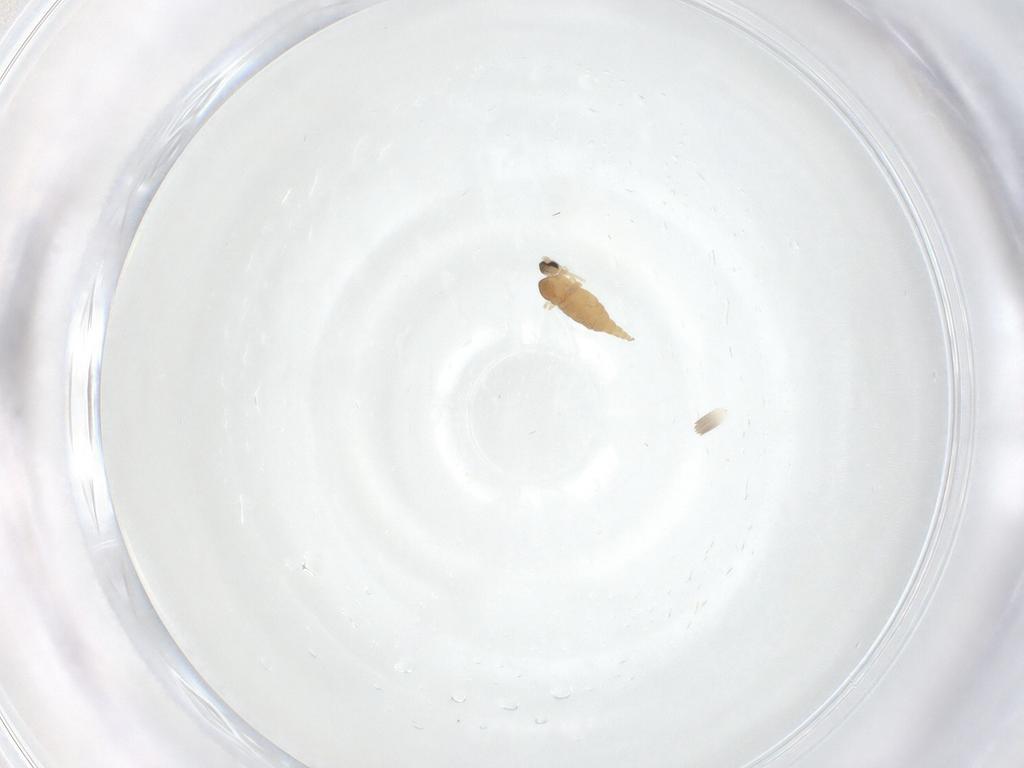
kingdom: Animalia
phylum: Arthropoda
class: Insecta
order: Diptera
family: Cecidomyiidae
